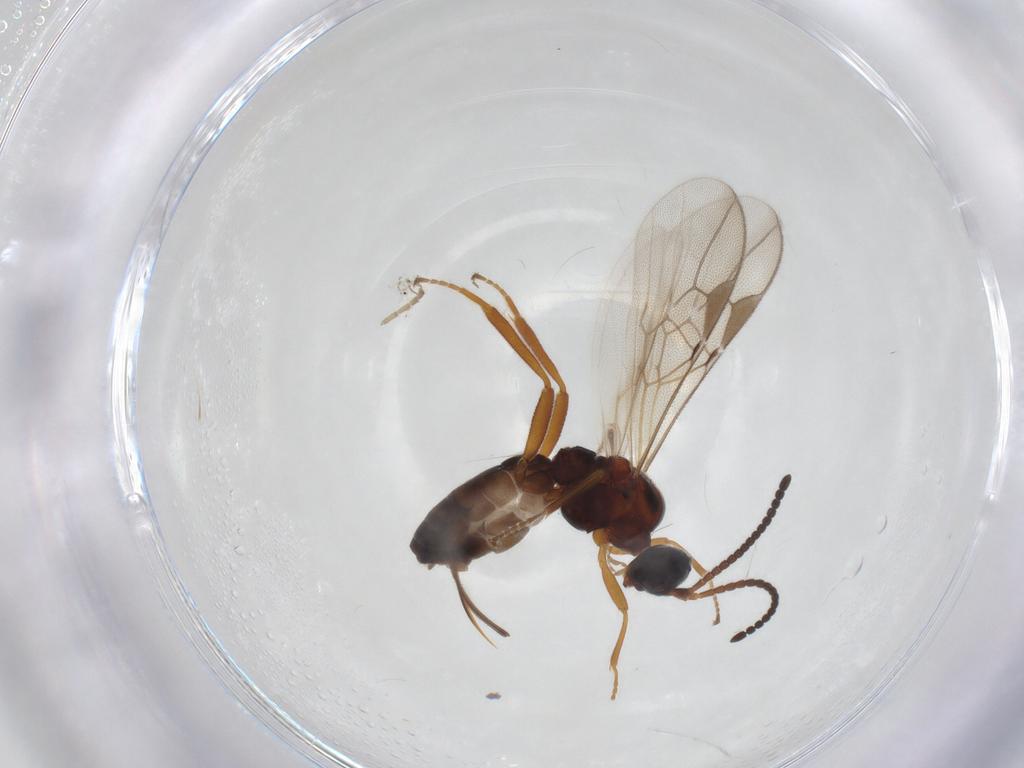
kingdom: Animalia
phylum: Arthropoda
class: Insecta
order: Hymenoptera
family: Braconidae
